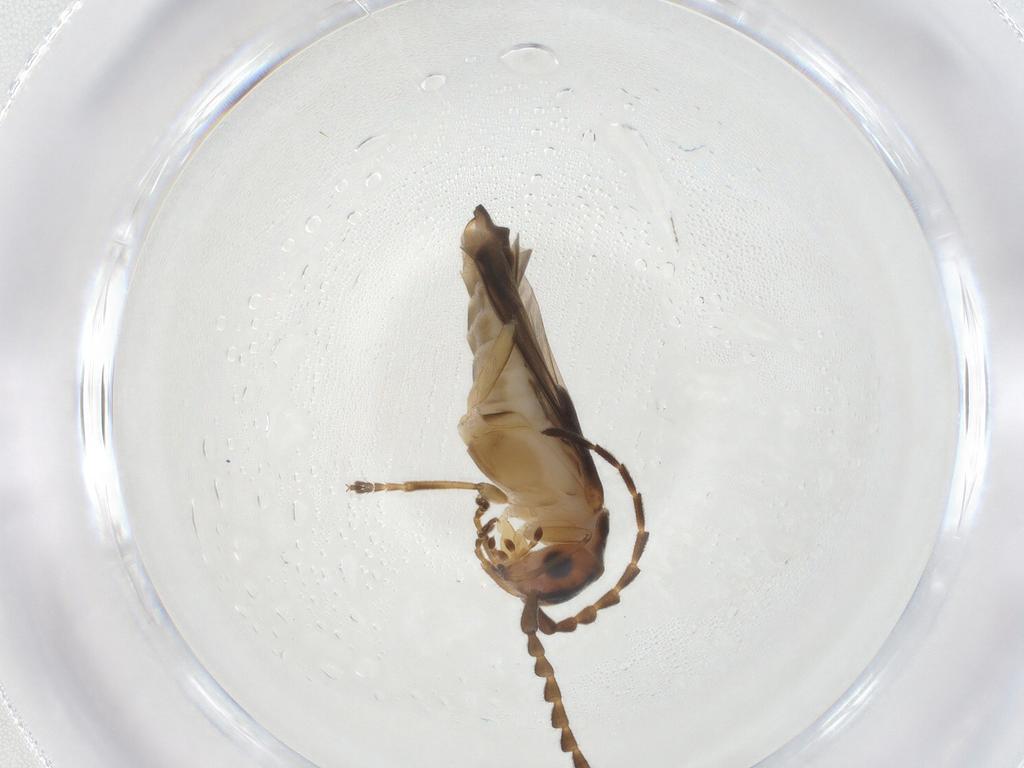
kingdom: Animalia
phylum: Arthropoda
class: Insecta
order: Coleoptera
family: Cantharidae
